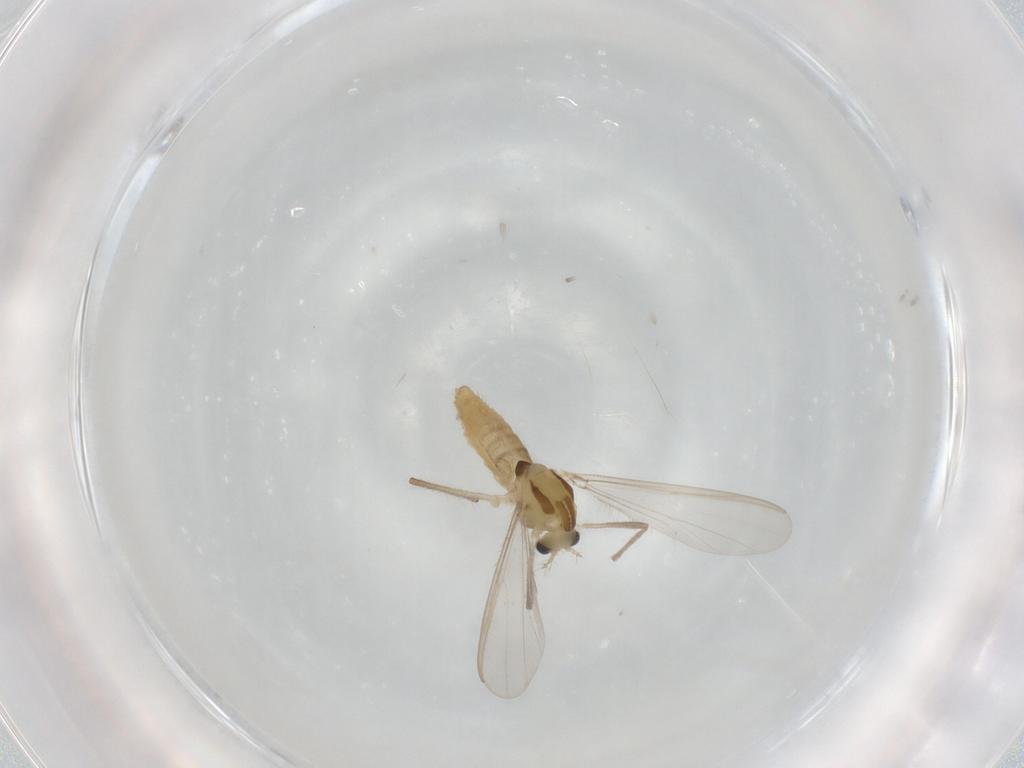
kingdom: Animalia
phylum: Arthropoda
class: Insecta
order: Diptera
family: Chironomidae
